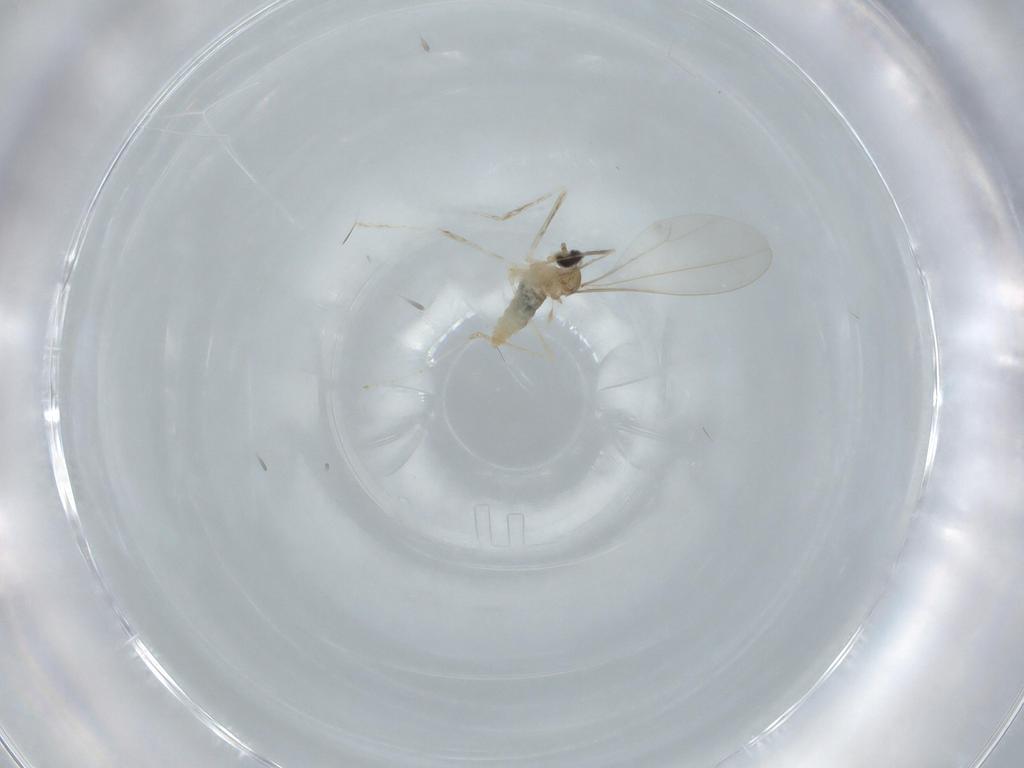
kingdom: Animalia
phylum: Arthropoda
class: Insecta
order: Diptera
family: Cecidomyiidae
